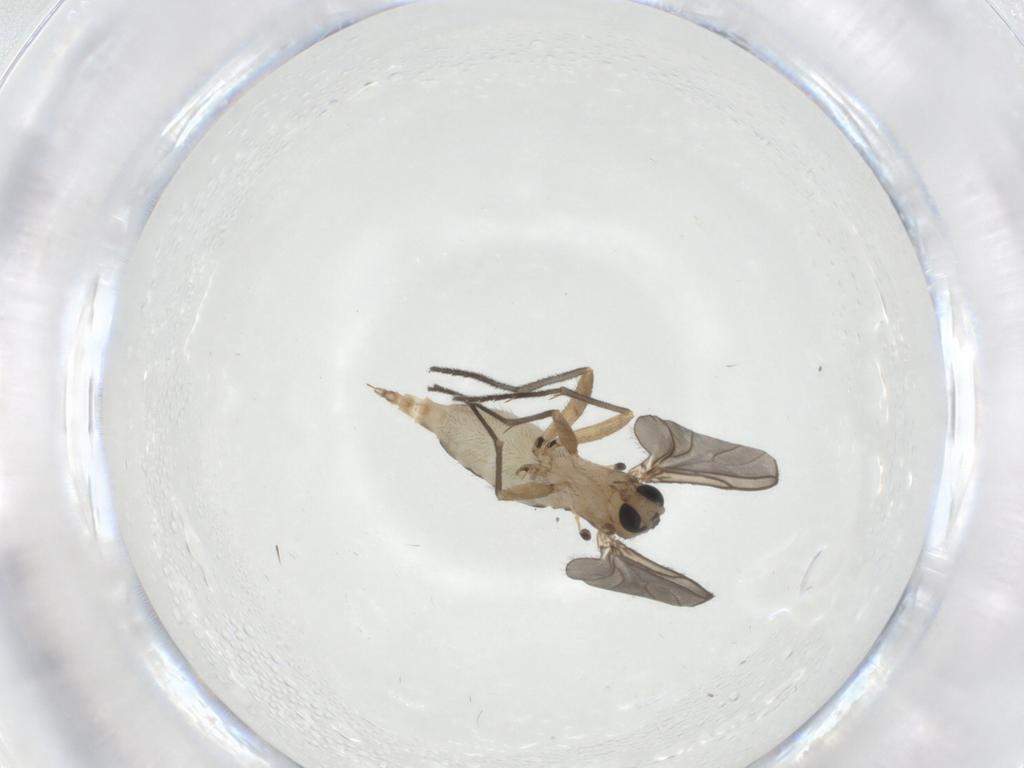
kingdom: Animalia
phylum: Arthropoda
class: Insecta
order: Diptera
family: Sciaridae
